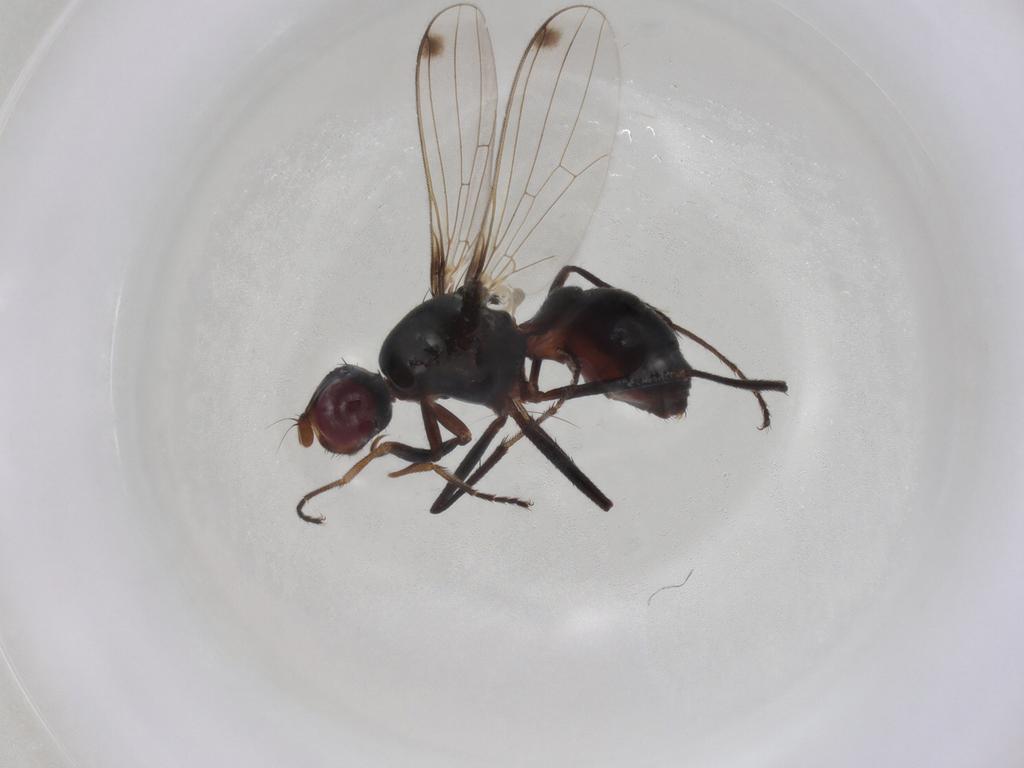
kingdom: Animalia
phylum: Arthropoda
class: Insecta
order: Diptera
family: Sepsidae
